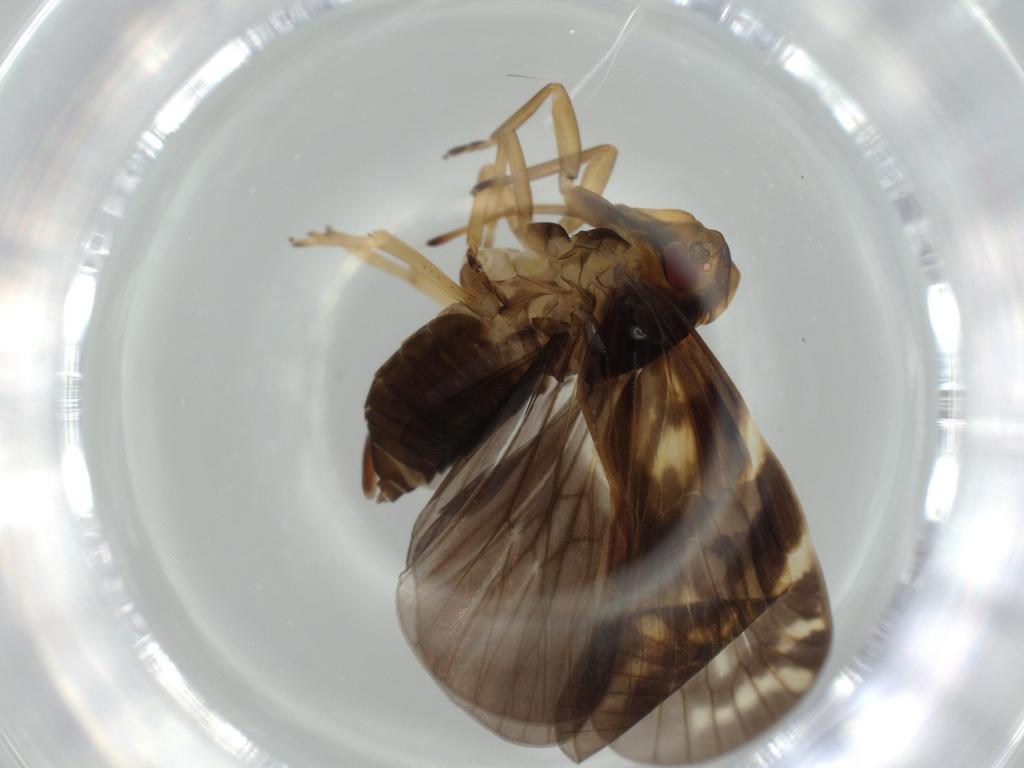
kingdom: Animalia
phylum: Arthropoda
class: Insecta
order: Hemiptera
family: Cixiidae
